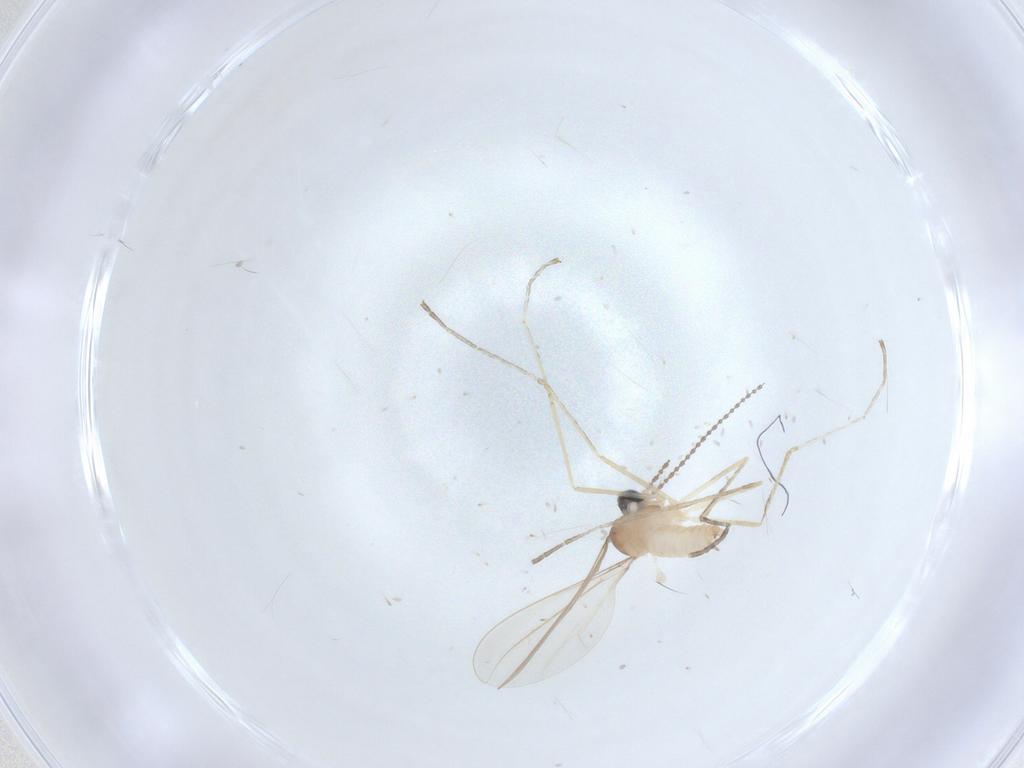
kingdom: Animalia
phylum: Arthropoda
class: Insecta
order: Diptera
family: Cecidomyiidae
